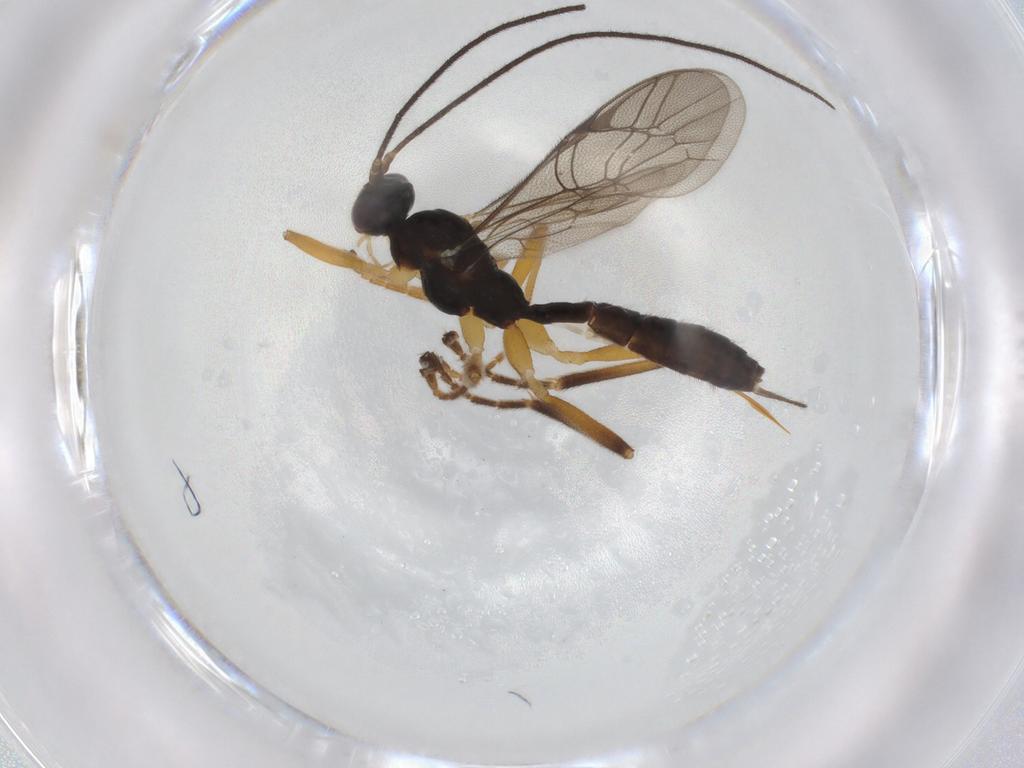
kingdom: Animalia
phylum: Arthropoda
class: Insecta
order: Hymenoptera
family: Ichneumonidae
